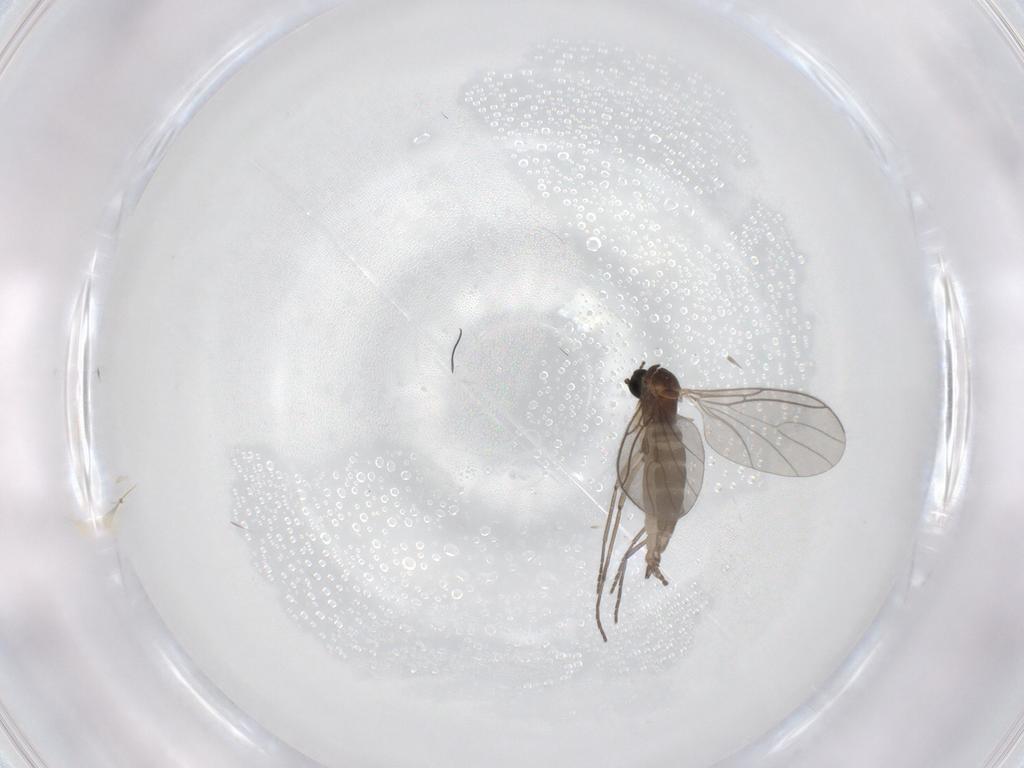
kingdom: Animalia
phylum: Arthropoda
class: Insecta
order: Diptera
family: Sciaridae
